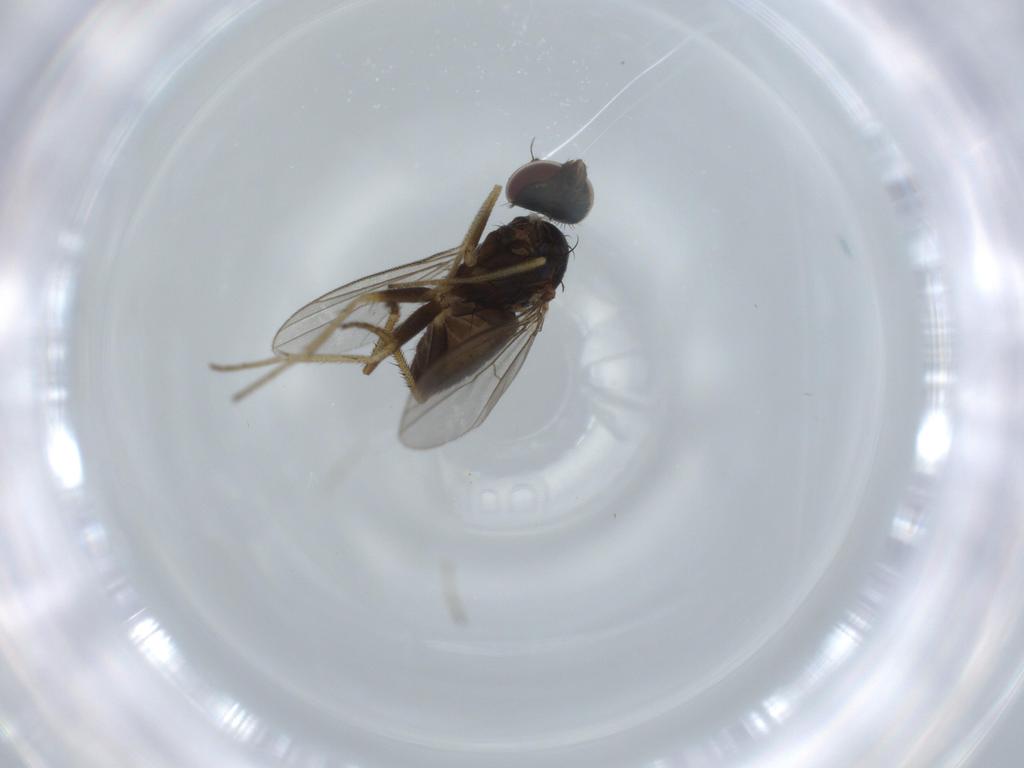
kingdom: Animalia
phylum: Arthropoda
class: Insecta
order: Diptera
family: Dolichopodidae
